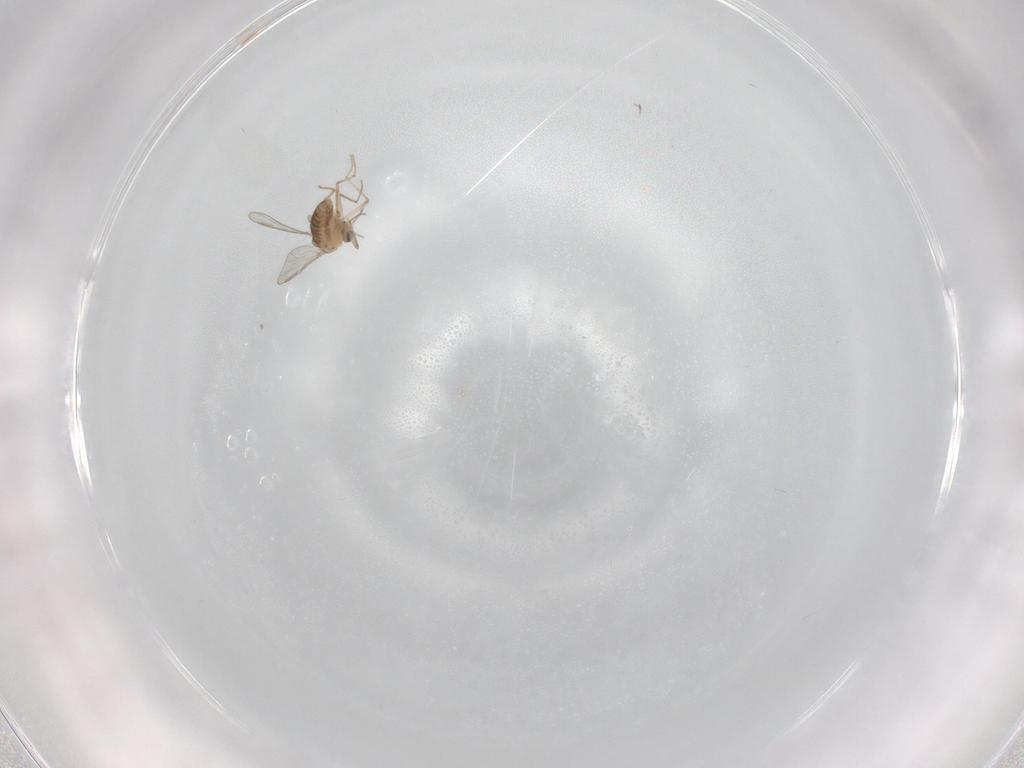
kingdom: Animalia
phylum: Arthropoda
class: Insecta
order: Diptera
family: Chironomidae
